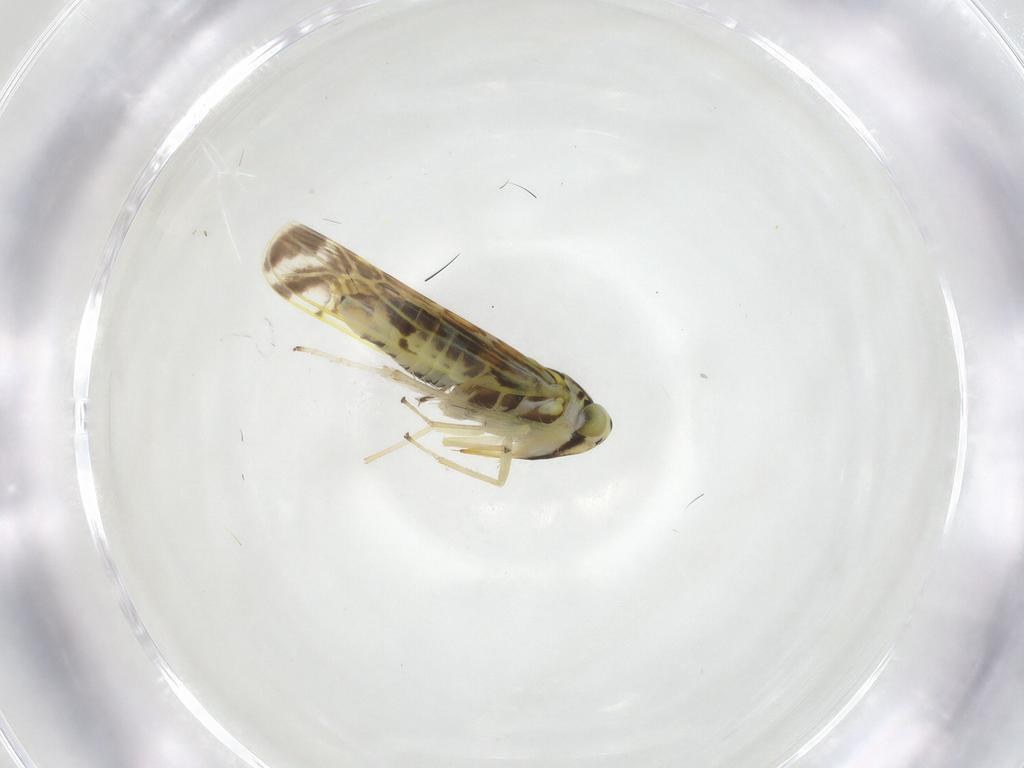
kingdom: Animalia
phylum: Arthropoda
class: Insecta
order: Hemiptera
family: Cicadellidae
